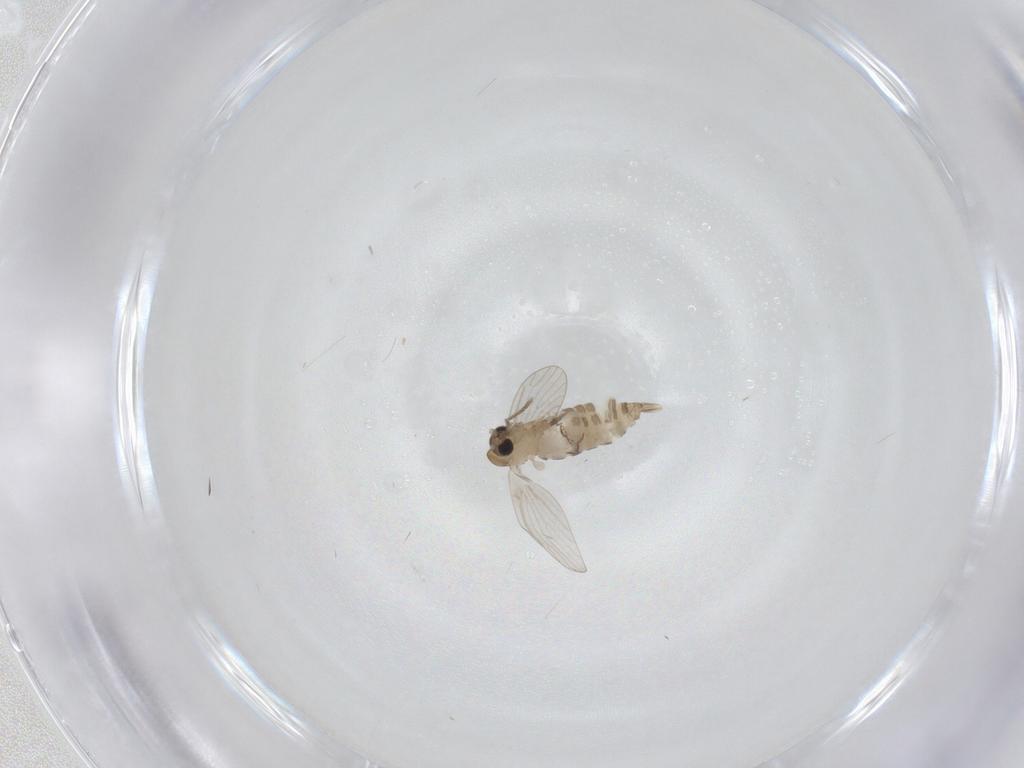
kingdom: Animalia
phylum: Arthropoda
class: Insecta
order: Diptera
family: Psychodidae
